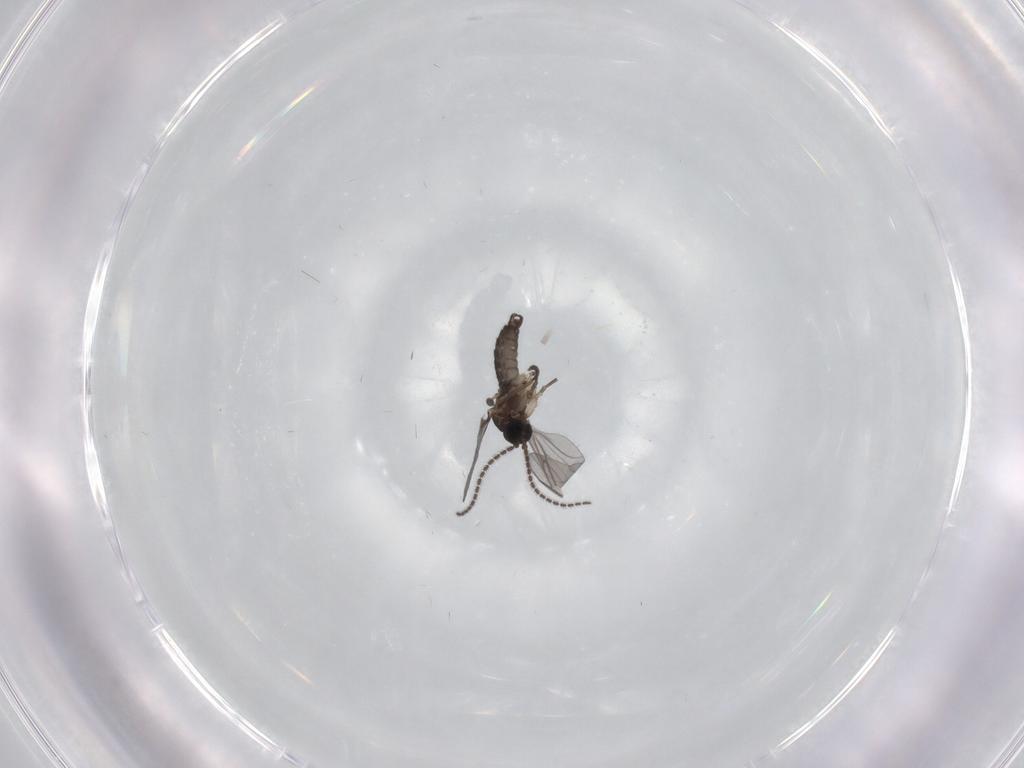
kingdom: Animalia
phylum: Arthropoda
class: Insecta
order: Diptera
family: Sciaridae
